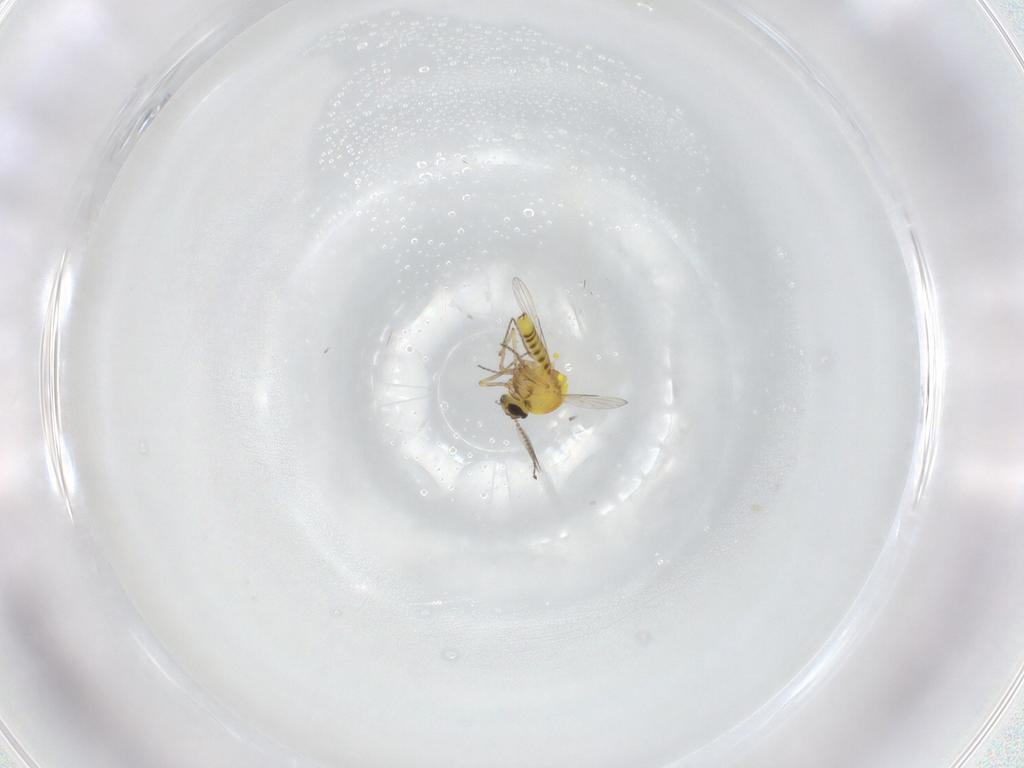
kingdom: Animalia
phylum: Arthropoda
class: Insecta
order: Diptera
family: Ceratopogonidae
